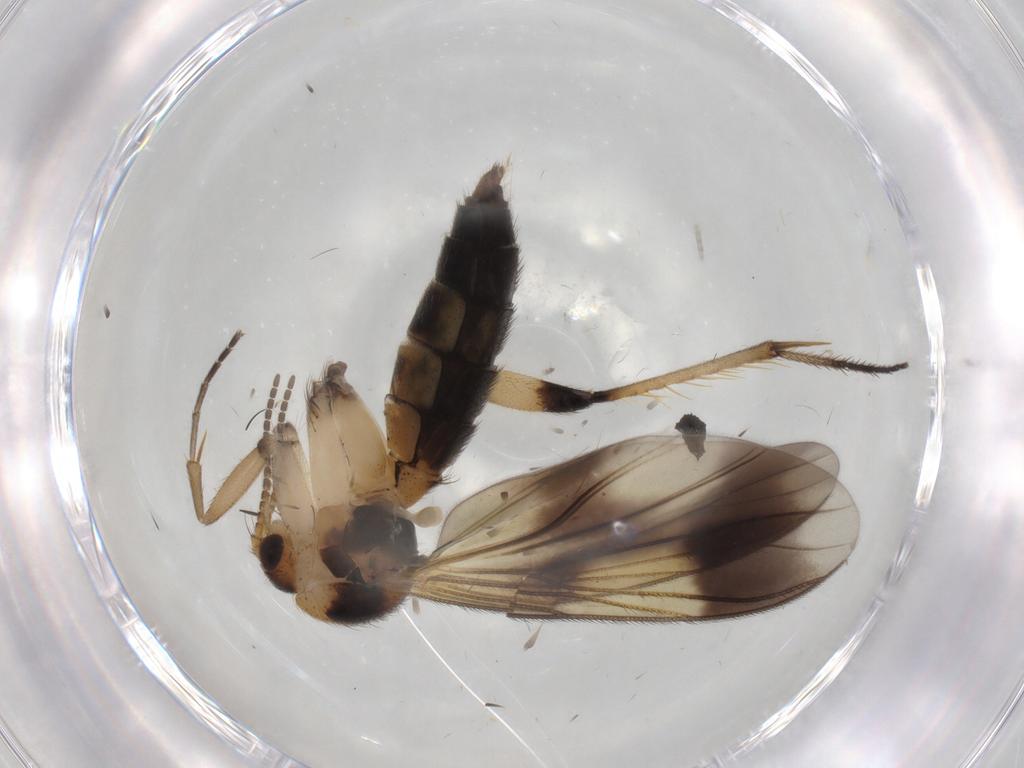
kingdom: Animalia
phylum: Arthropoda
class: Insecta
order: Diptera
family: Mycetophilidae
